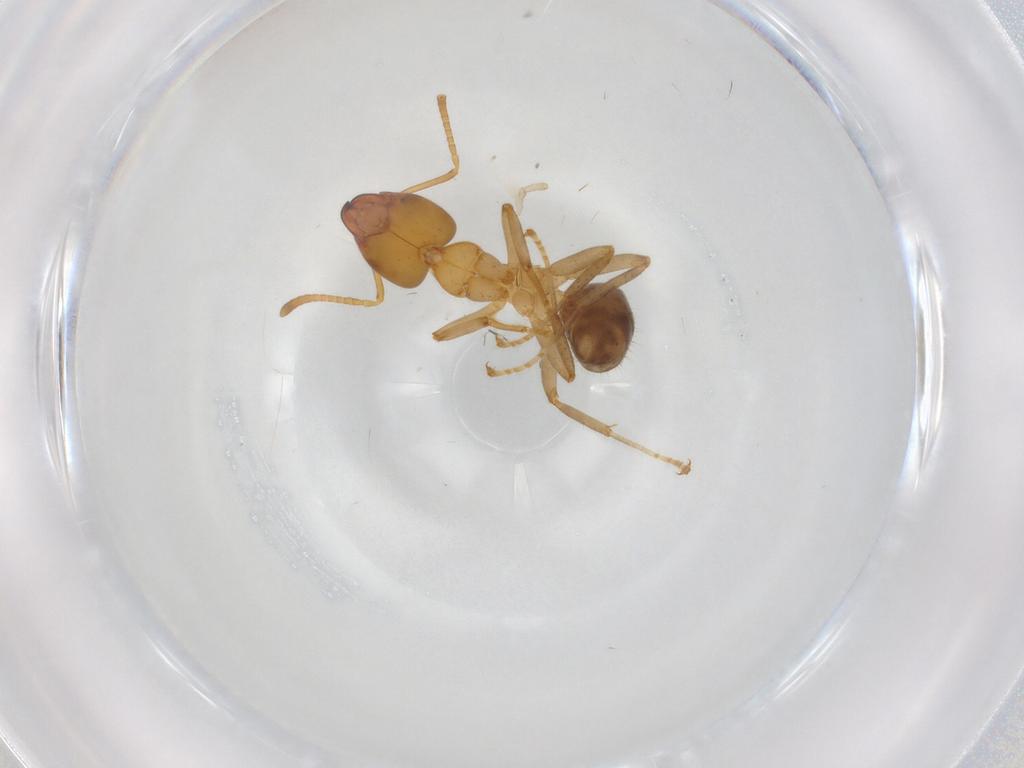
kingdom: Animalia
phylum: Arthropoda
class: Insecta
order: Hymenoptera
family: Formicidae
